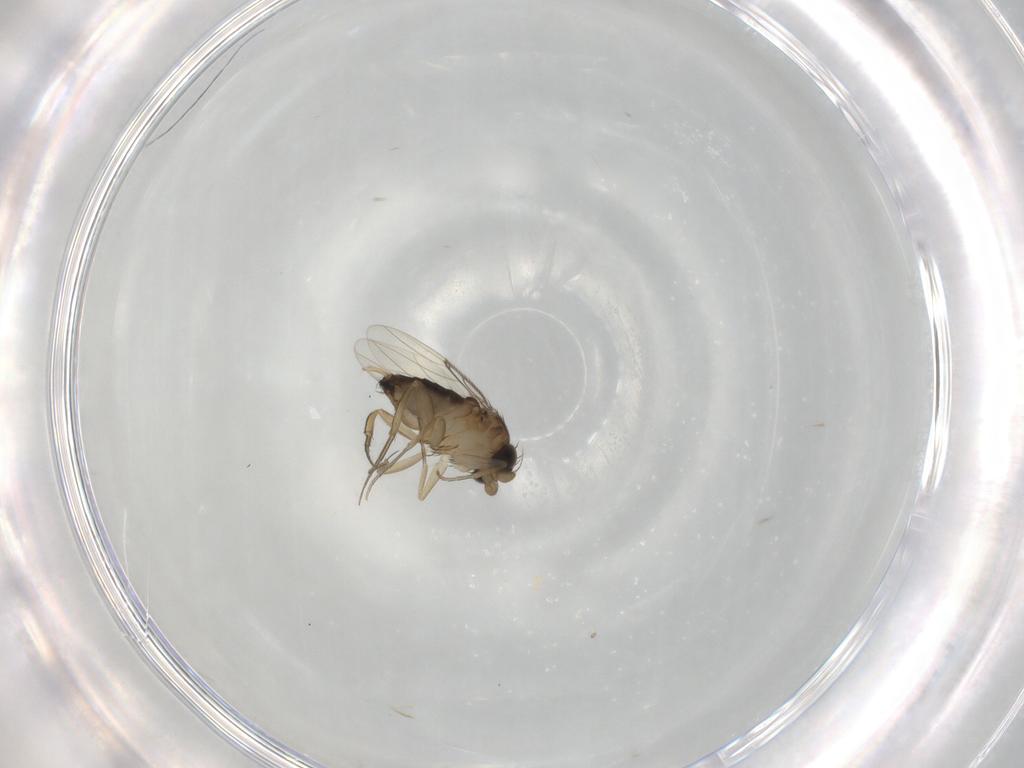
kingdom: Animalia
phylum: Arthropoda
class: Insecta
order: Diptera
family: Phoridae
